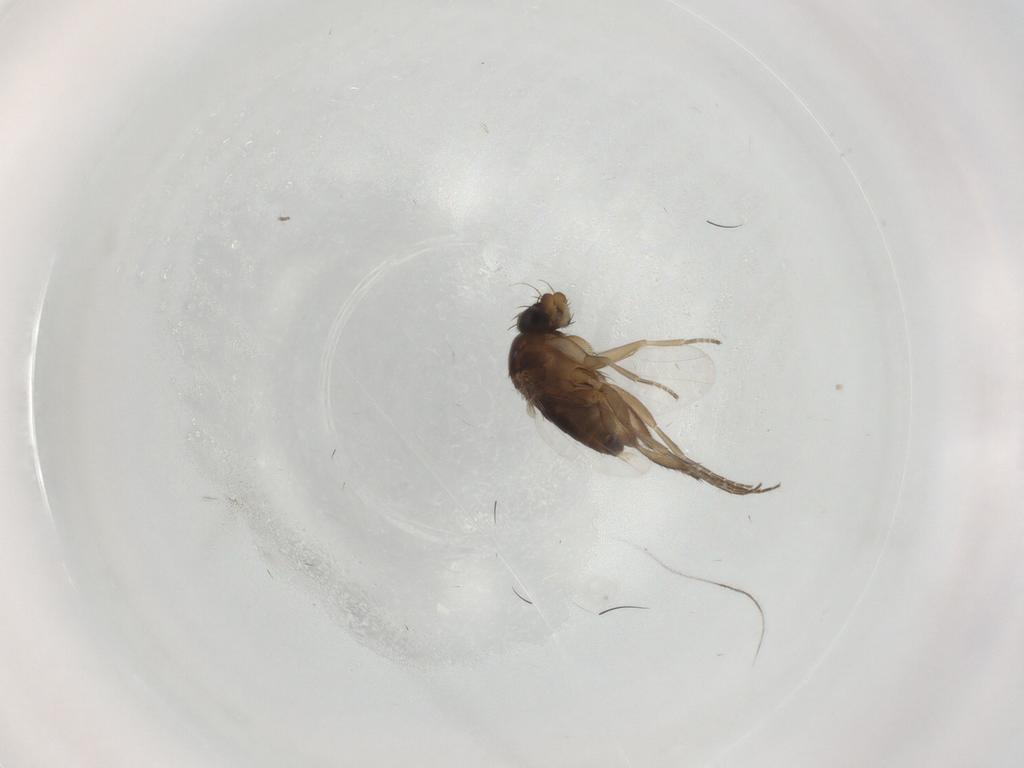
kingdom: Animalia
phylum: Arthropoda
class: Insecta
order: Diptera
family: Phoridae
